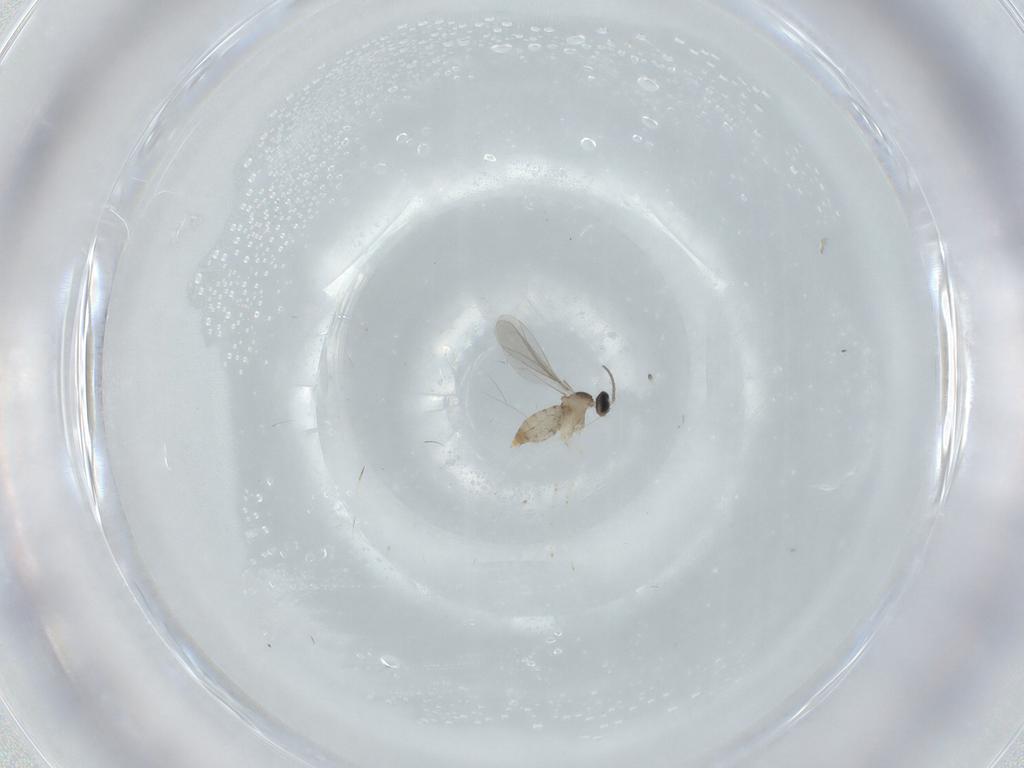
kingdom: Animalia
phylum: Arthropoda
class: Insecta
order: Diptera
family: Cecidomyiidae
